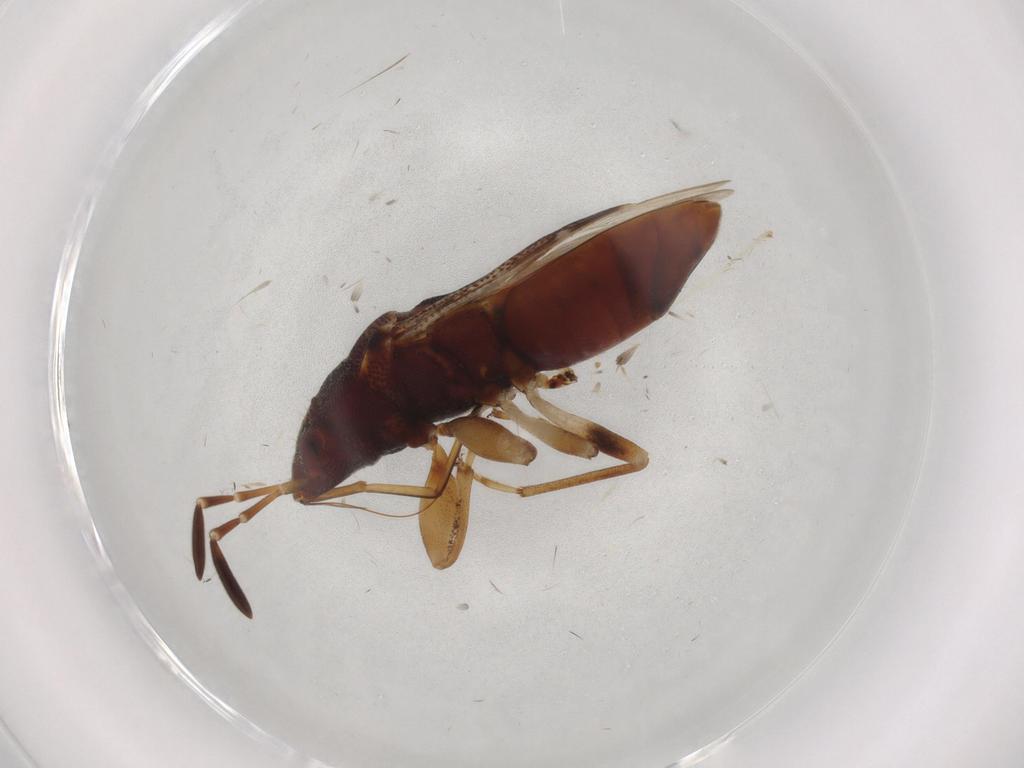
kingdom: Animalia
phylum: Arthropoda
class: Insecta
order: Hemiptera
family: Rhyparochromidae
